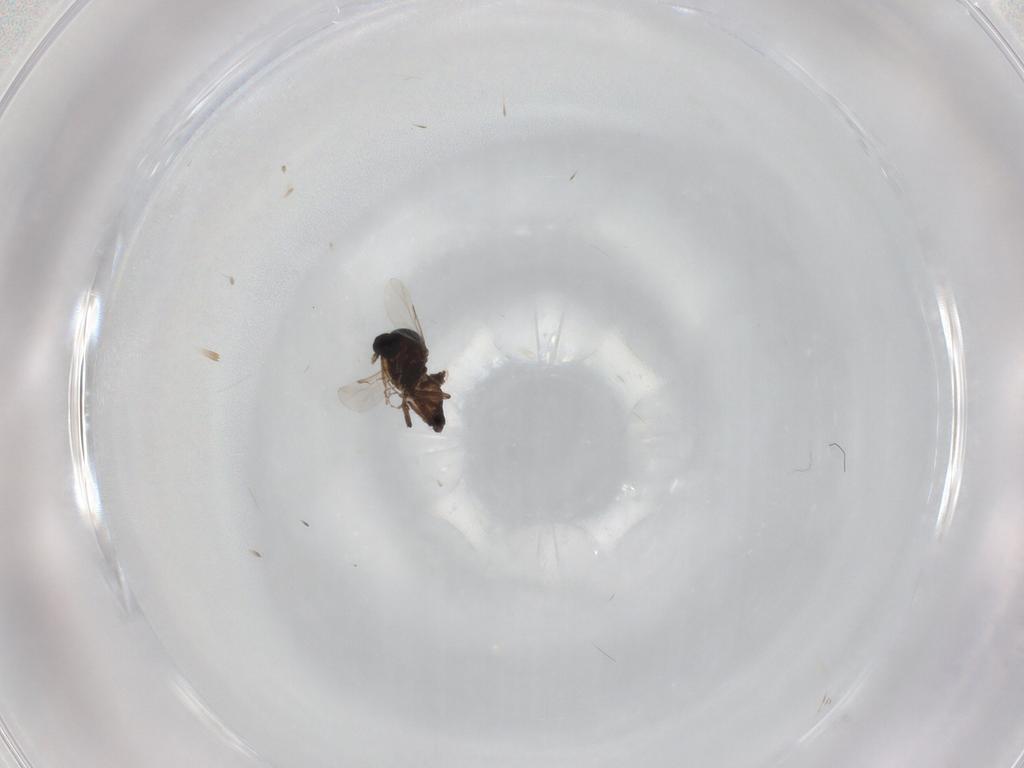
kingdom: Animalia
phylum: Arthropoda
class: Insecta
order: Diptera
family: Ceratopogonidae
